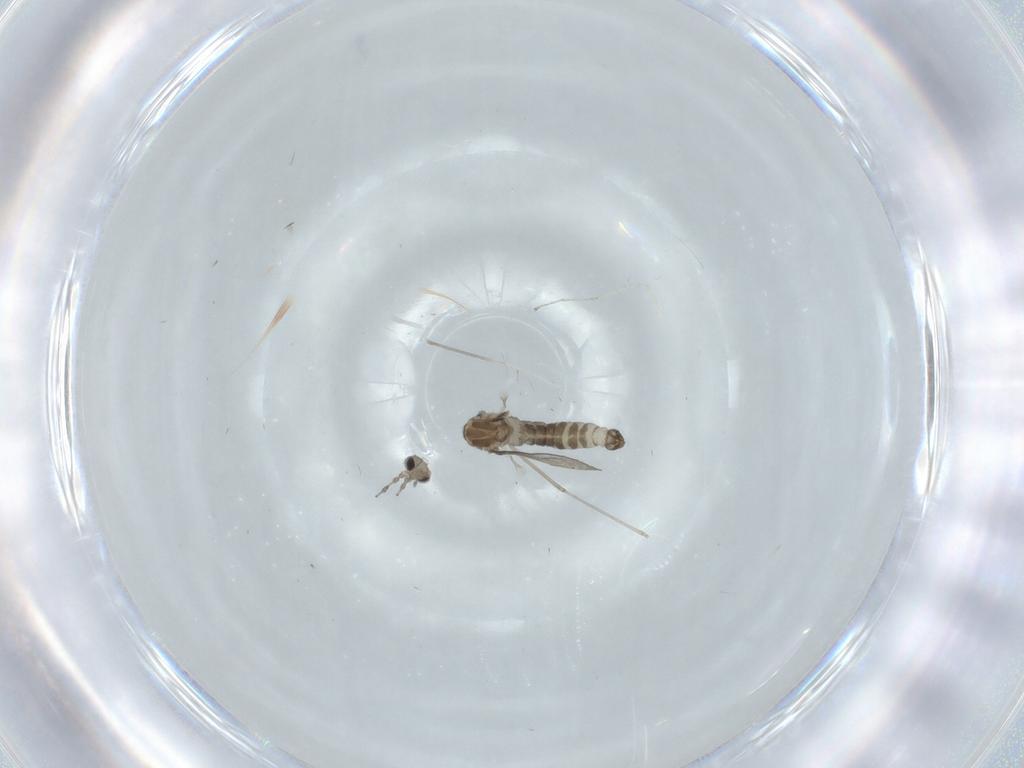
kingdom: Animalia
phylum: Arthropoda
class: Insecta
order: Diptera
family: Cecidomyiidae
